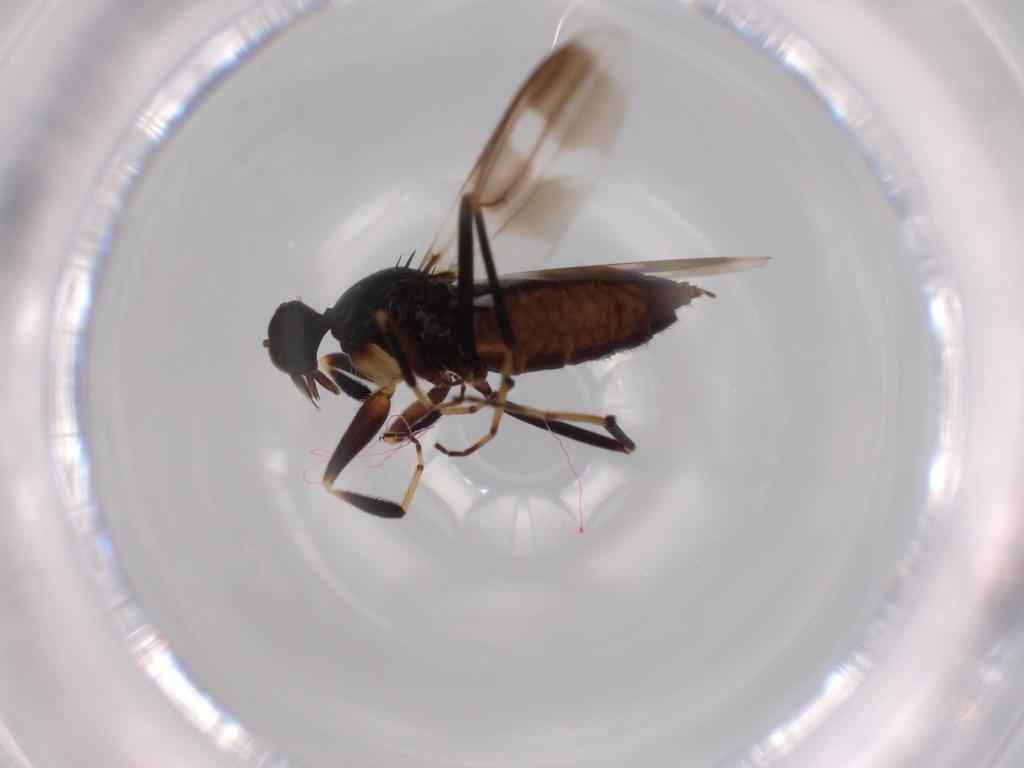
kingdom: Animalia
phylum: Arthropoda
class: Insecta
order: Diptera
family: Hybotidae
